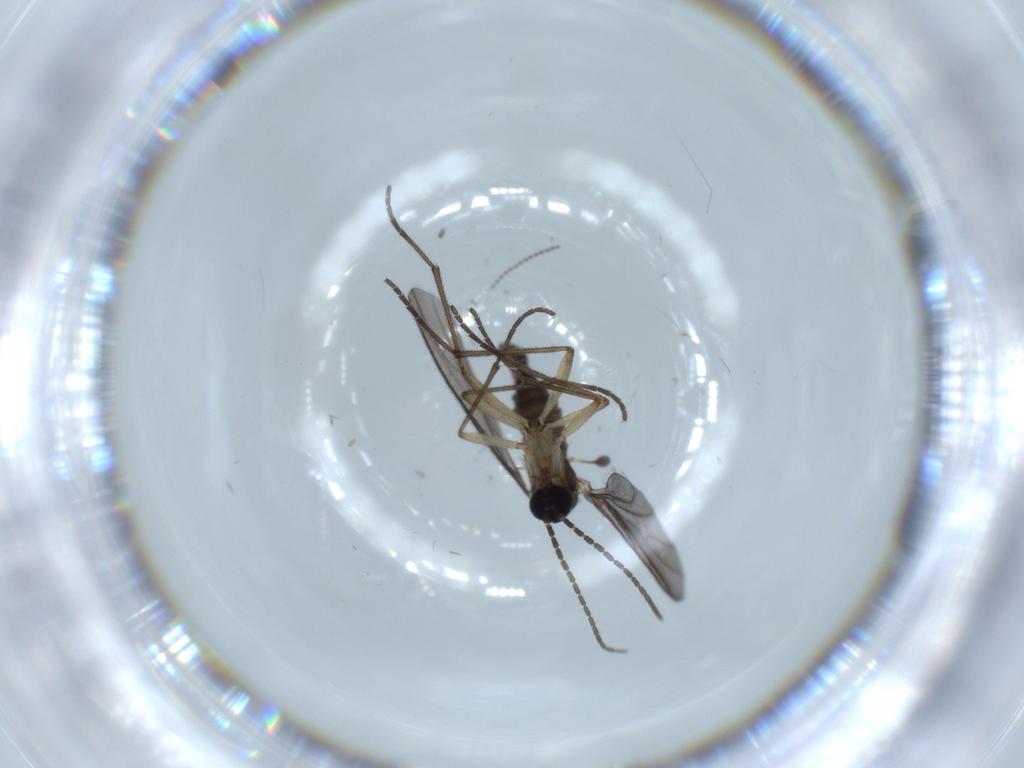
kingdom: Animalia
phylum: Arthropoda
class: Insecta
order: Diptera
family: Sciaridae
